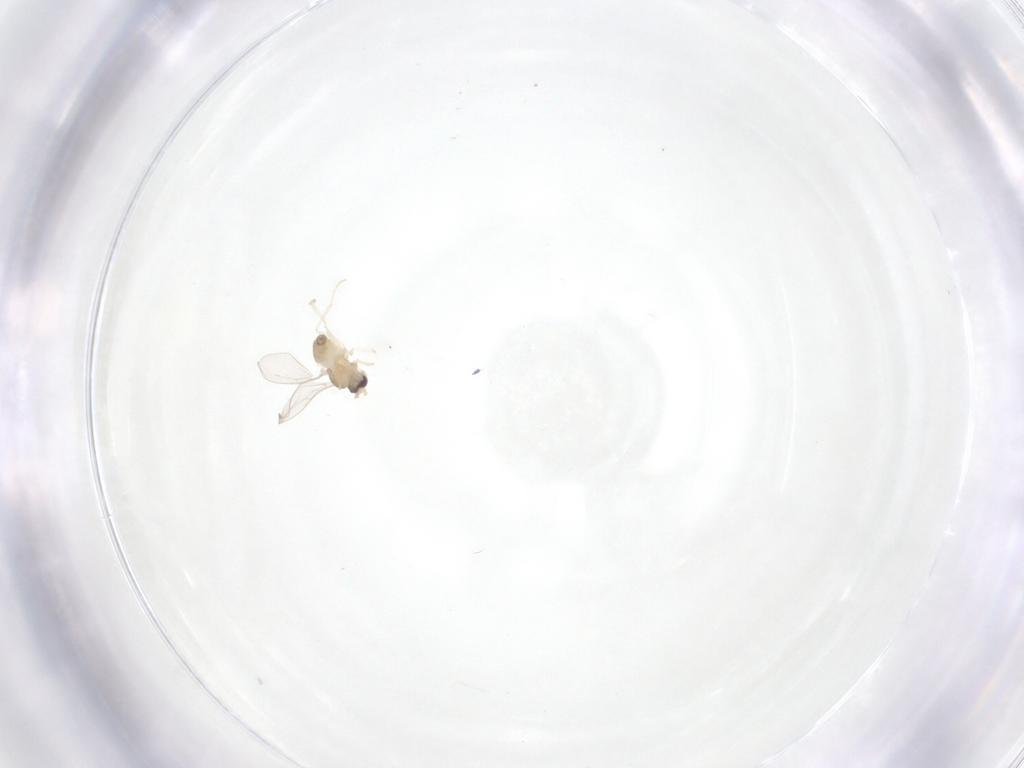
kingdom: Animalia
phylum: Arthropoda
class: Insecta
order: Diptera
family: Cecidomyiidae
